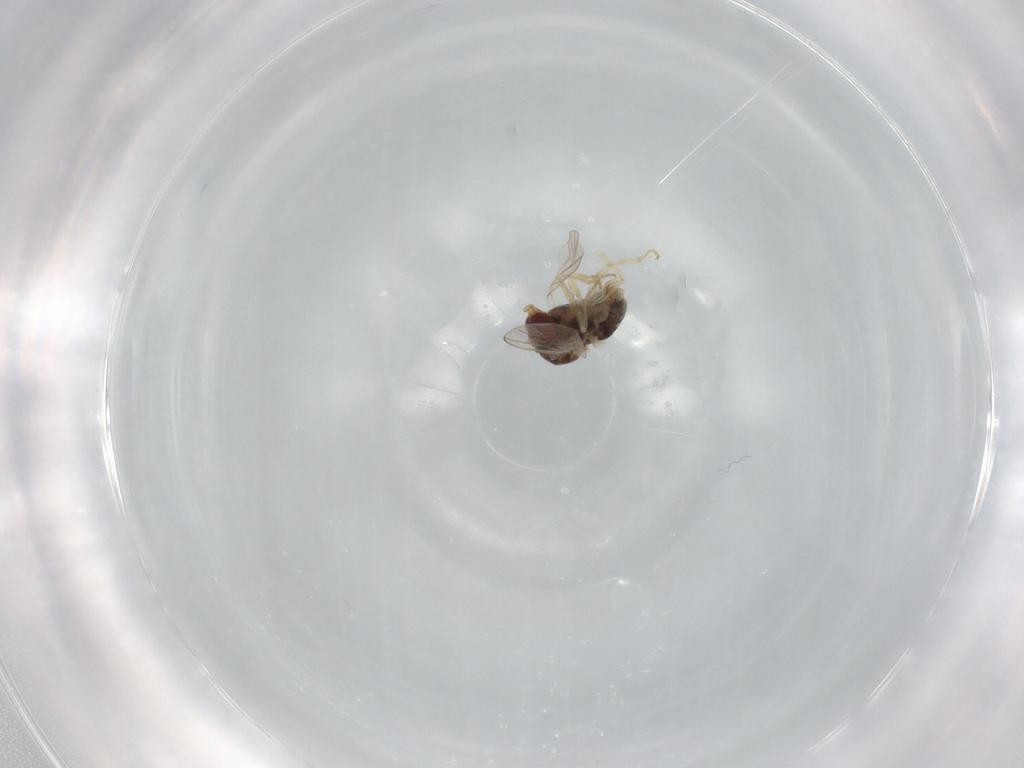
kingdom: Animalia
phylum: Arthropoda
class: Insecta
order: Diptera
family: Bombyliidae
